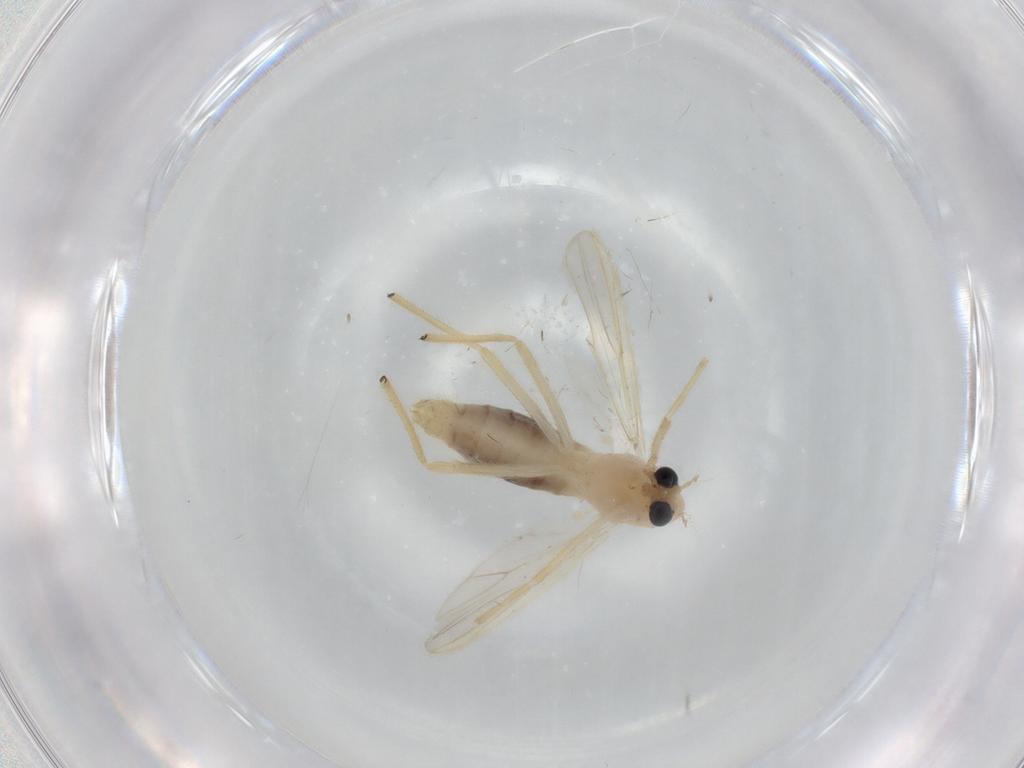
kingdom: Animalia
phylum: Arthropoda
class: Insecta
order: Diptera
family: Chironomidae
